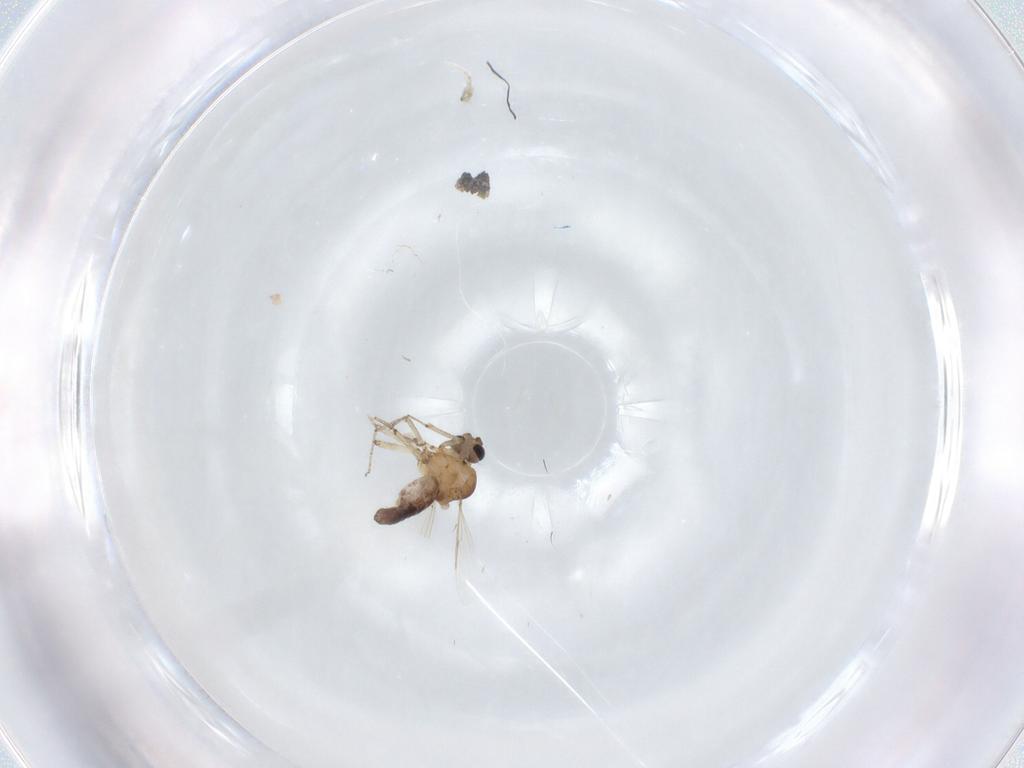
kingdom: Animalia
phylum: Arthropoda
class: Insecta
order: Diptera
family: Ceratopogonidae
